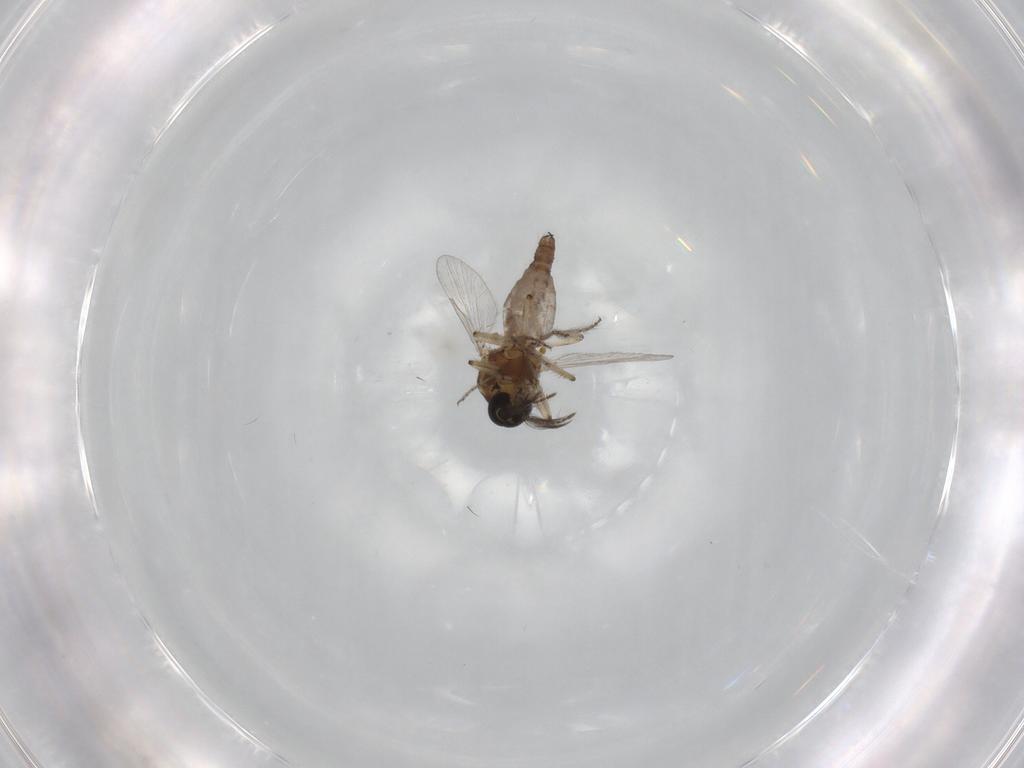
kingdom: Animalia
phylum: Arthropoda
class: Insecta
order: Diptera
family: Ceratopogonidae
